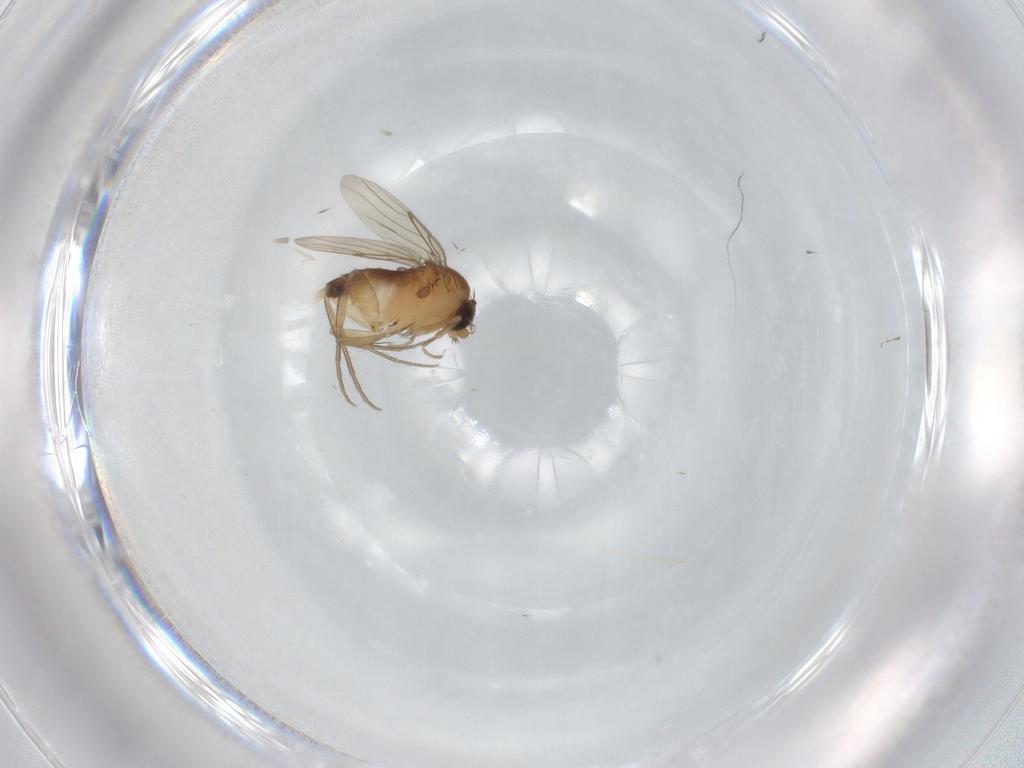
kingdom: Animalia
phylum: Arthropoda
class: Insecta
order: Diptera
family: Phoridae
